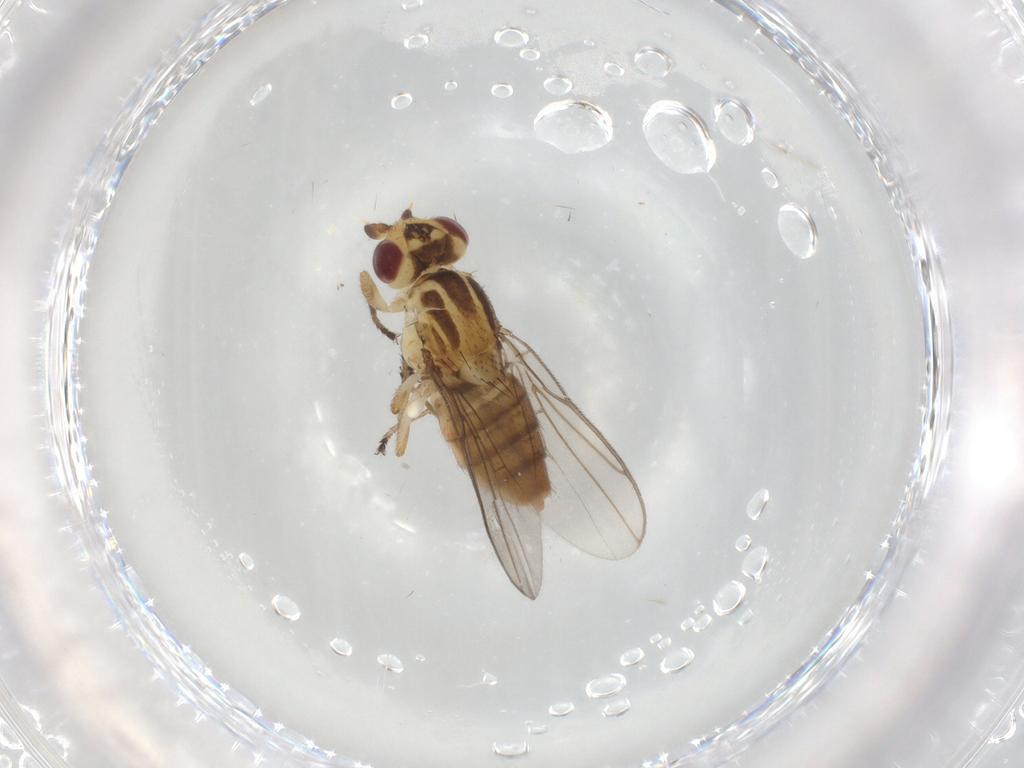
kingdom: Animalia
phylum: Arthropoda
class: Insecta
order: Diptera
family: Chloropidae
